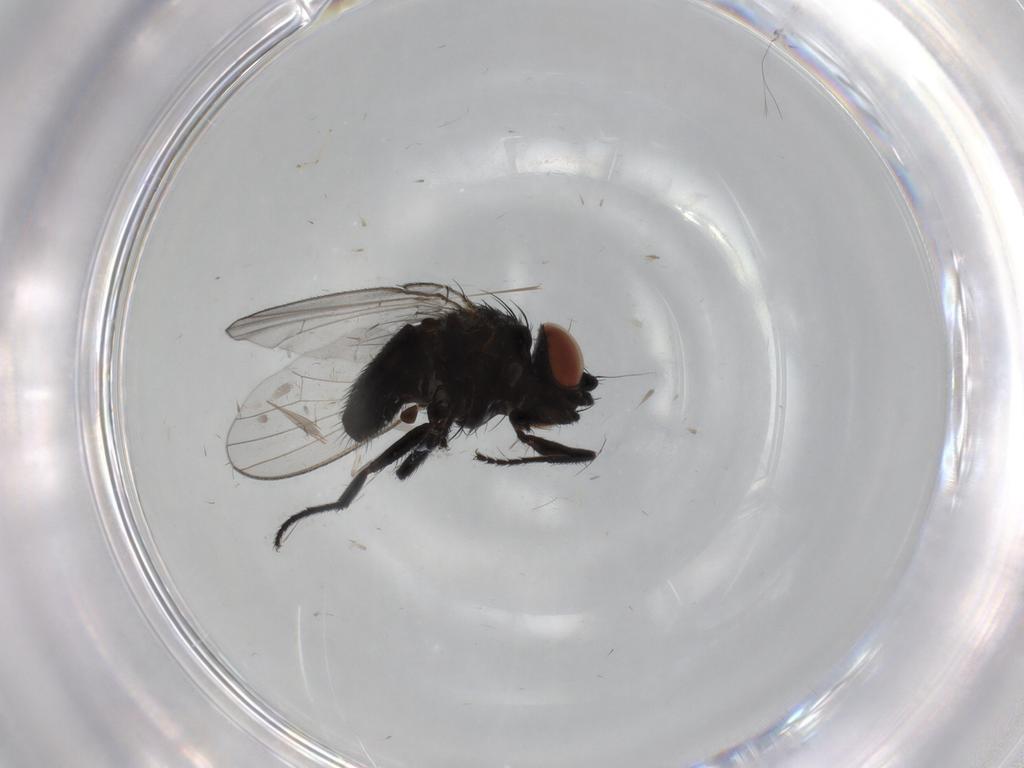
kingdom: Animalia
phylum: Arthropoda
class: Insecta
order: Diptera
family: Milichiidae
